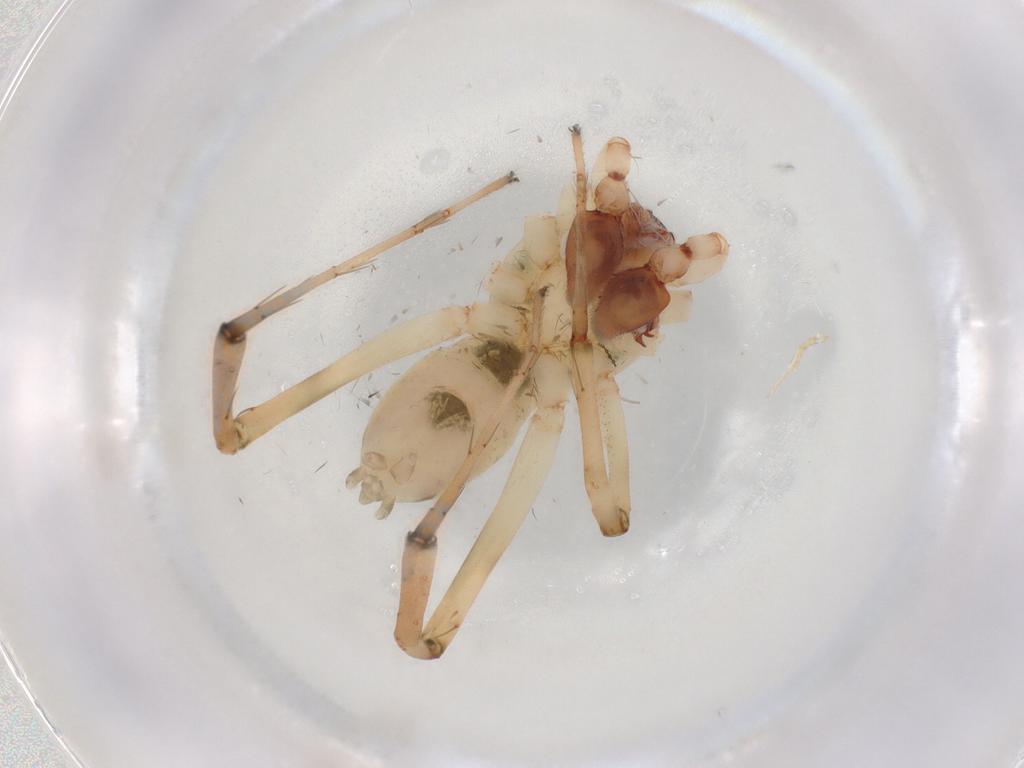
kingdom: Animalia
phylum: Arthropoda
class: Arachnida
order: Araneae
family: Anyphaenidae
